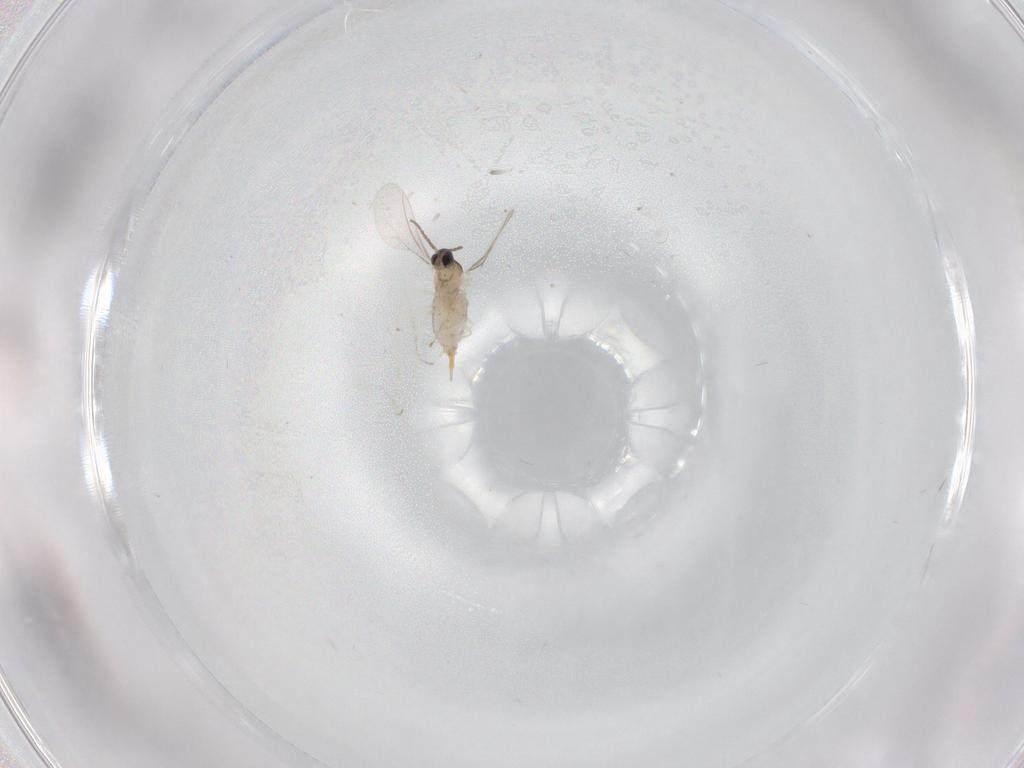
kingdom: Animalia
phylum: Arthropoda
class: Insecta
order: Diptera
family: Cecidomyiidae
